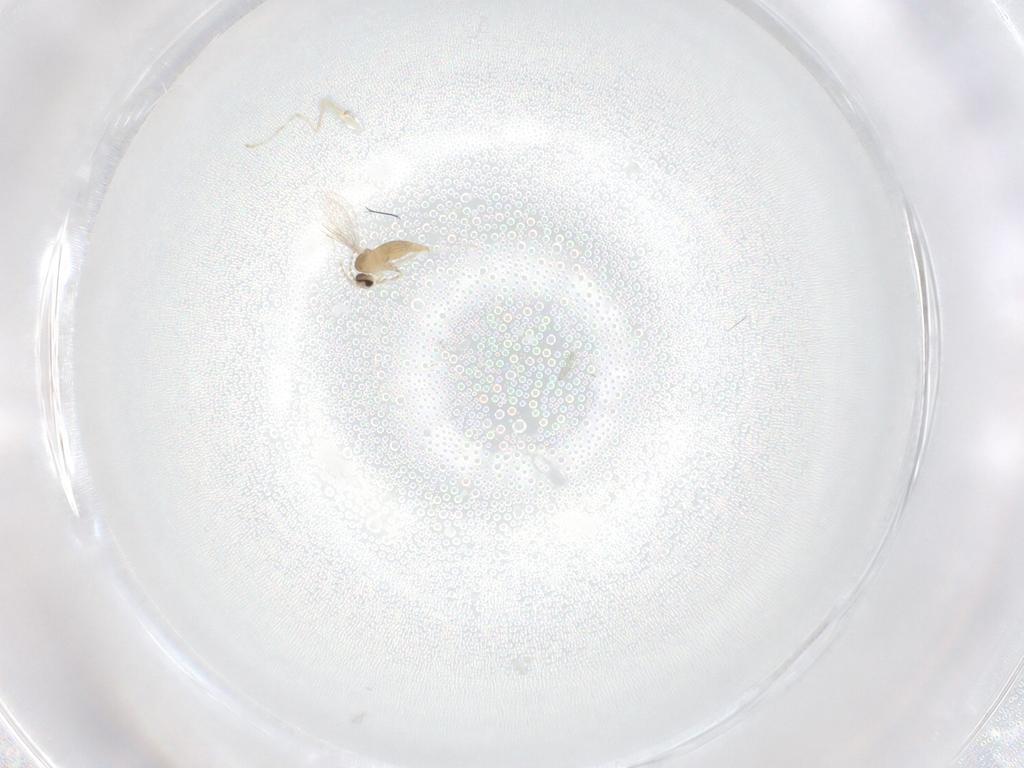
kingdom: Animalia
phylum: Arthropoda
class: Insecta
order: Diptera
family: Cecidomyiidae
